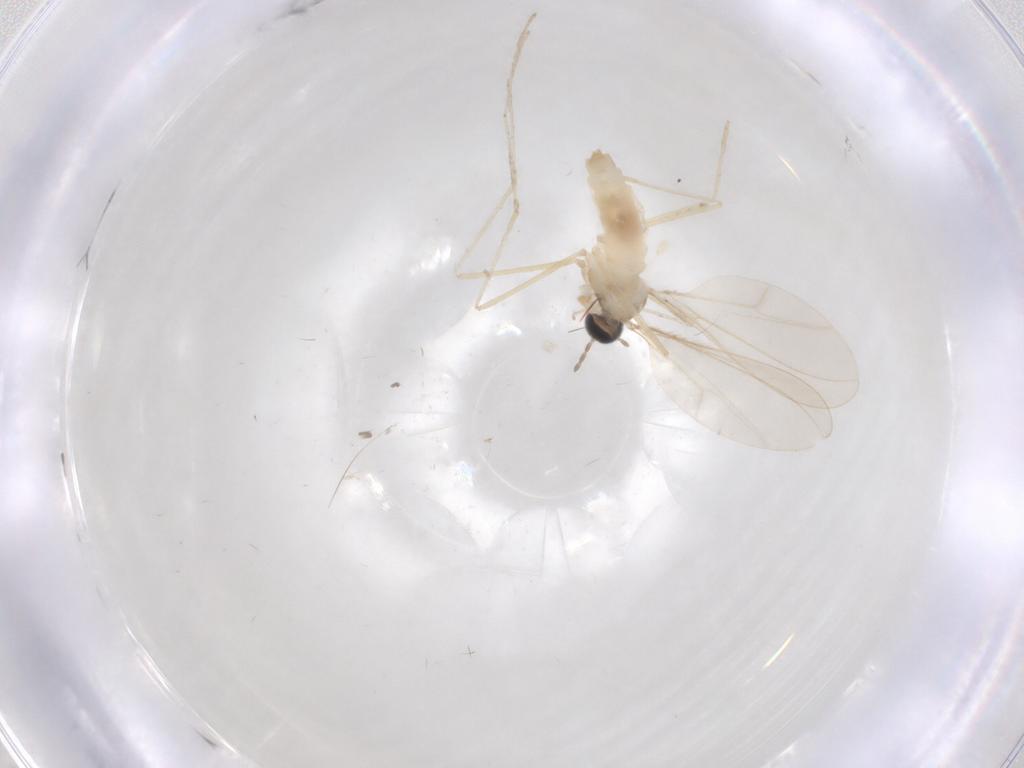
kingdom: Animalia
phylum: Arthropoda
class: Insecta
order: Diptera
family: Cecidomyiidae
